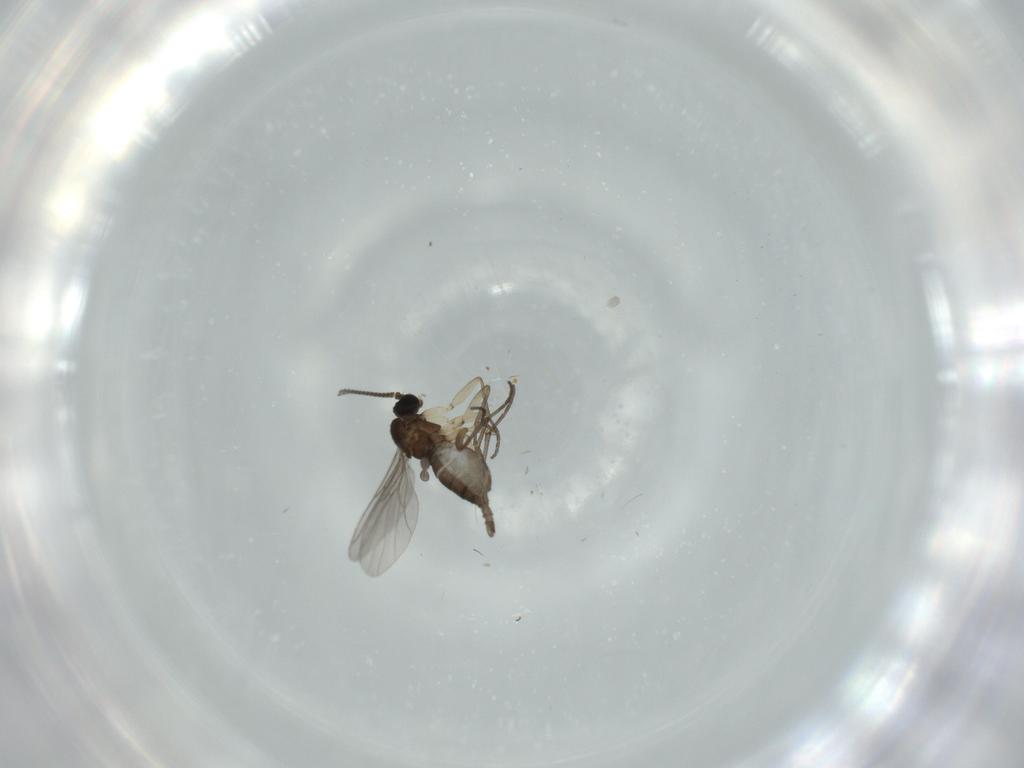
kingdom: Animalia
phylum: Arthropoda
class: Insecta
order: Diptera
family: Sciaridae
